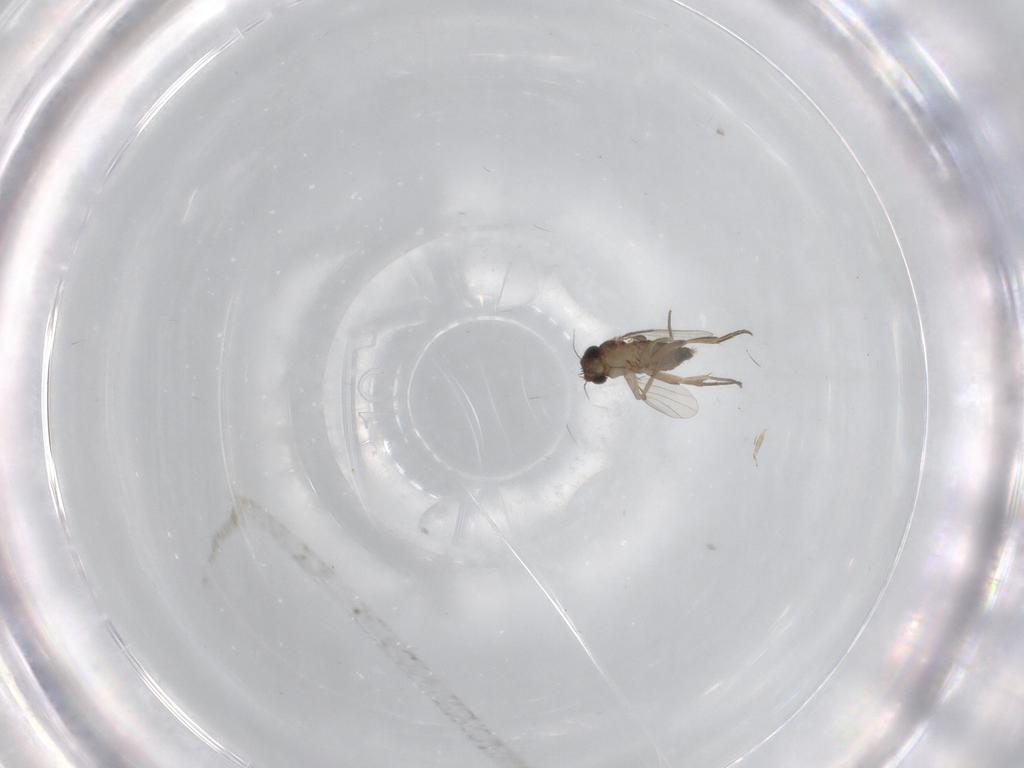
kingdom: Animalia
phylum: Arthropoda
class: Insecta
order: Diptera
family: Phoridae
